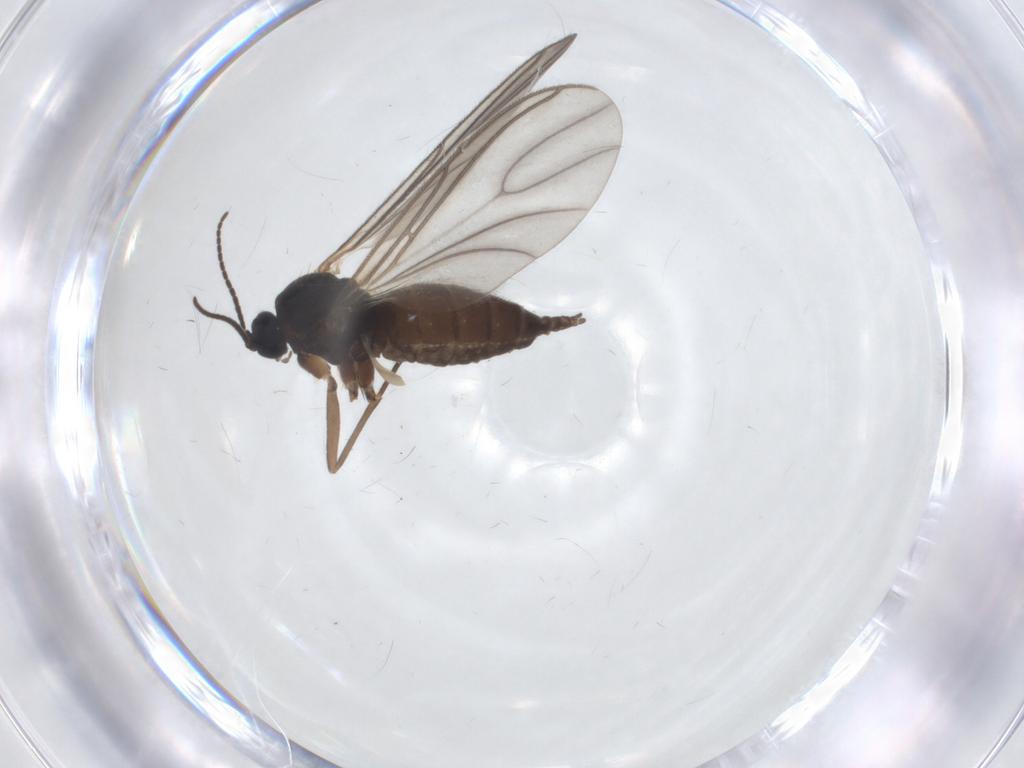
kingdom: Animalia
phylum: Arthropoda
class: Insecta
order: Diptera
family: Sciaridae
